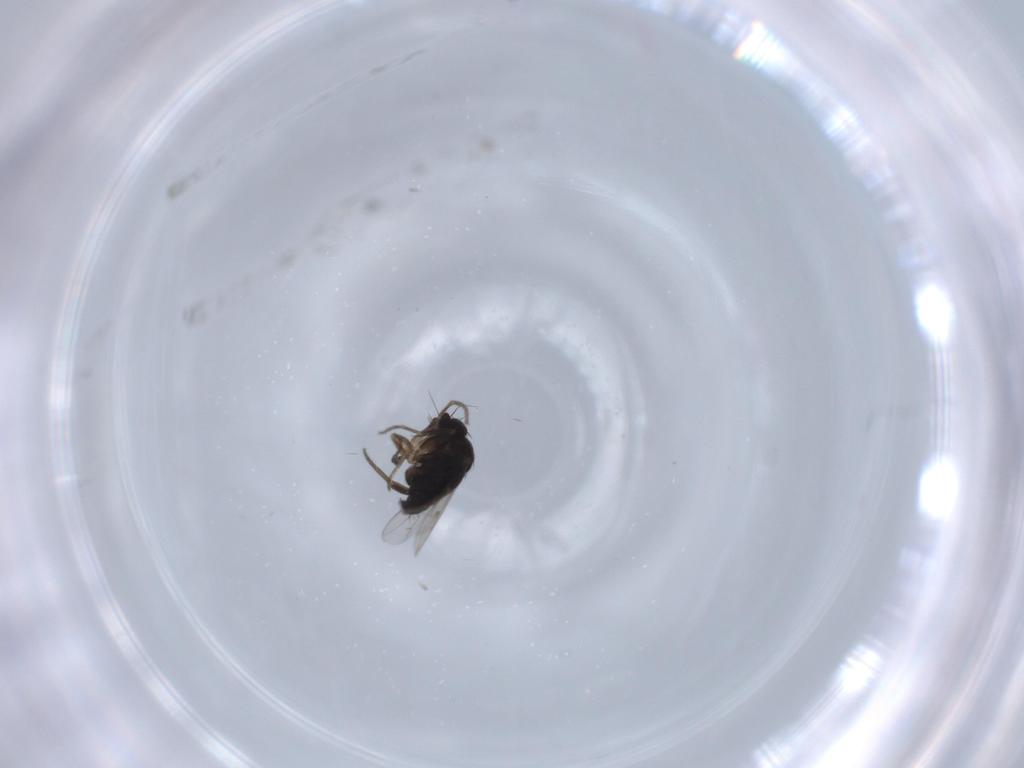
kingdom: Animalia
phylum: Arthropoda
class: Insecta
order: Diptera
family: Phoridae
